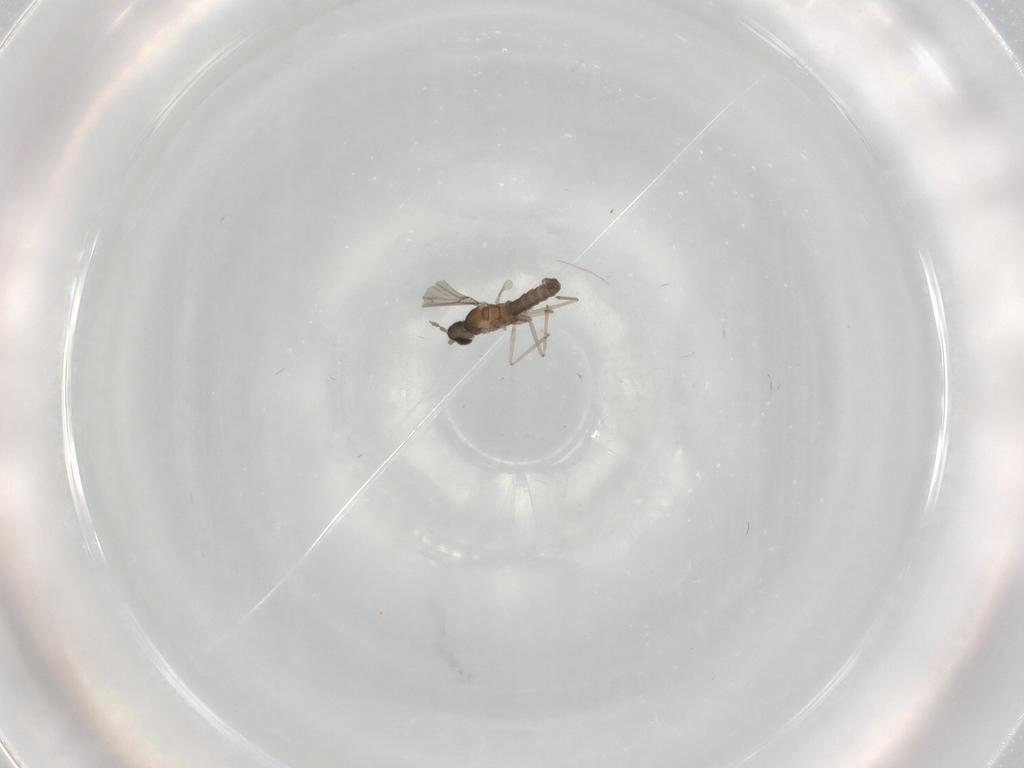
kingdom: Animalia
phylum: Arthropoda
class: Insecta
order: Diptera
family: Cecidomyiidae
